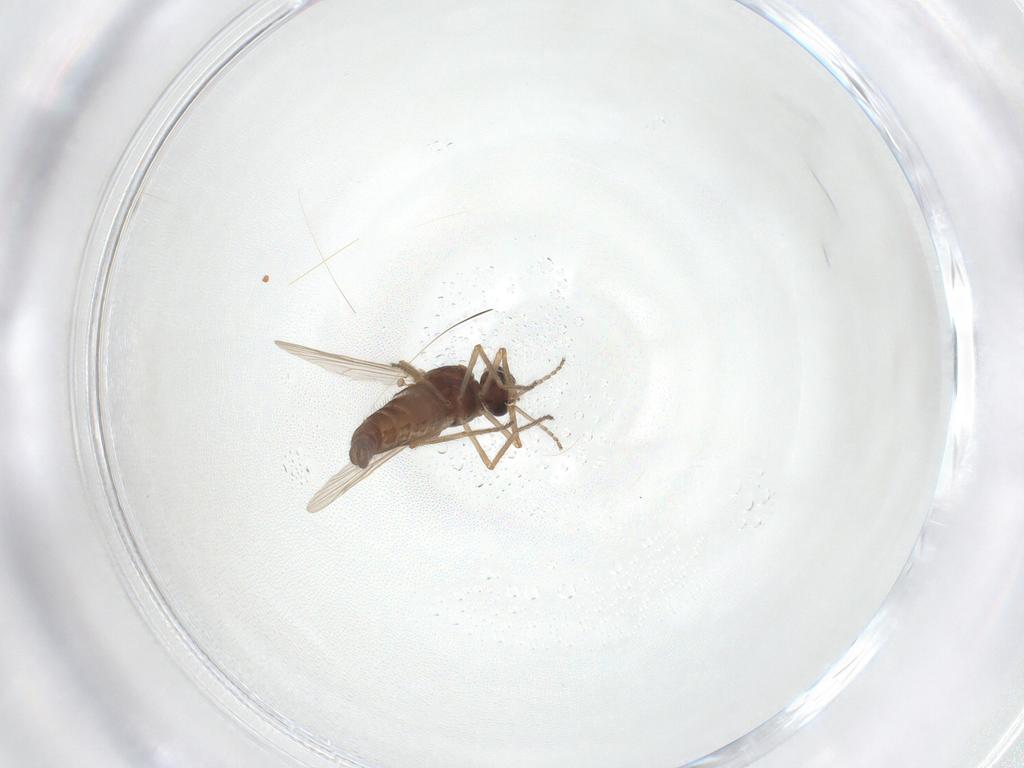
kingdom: Animalia
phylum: Arthropoda
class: Insecta
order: Diptera
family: Ceratopogonidae
